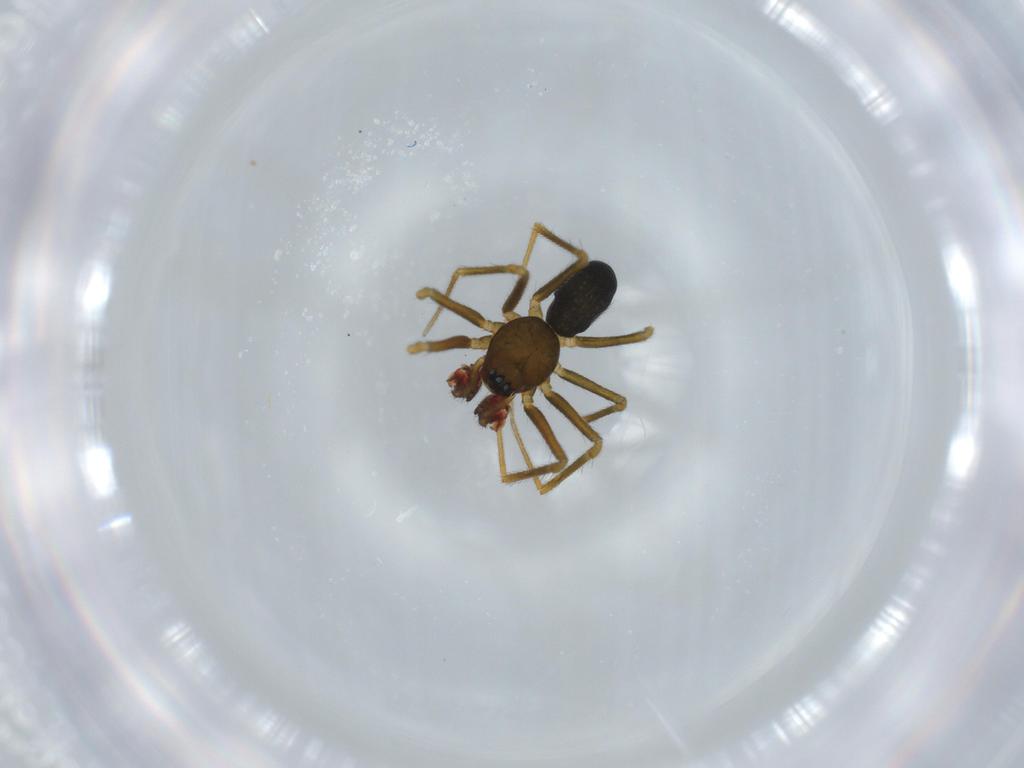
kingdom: Animalia
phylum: Arthropoda
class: Arachnida
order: Araneae
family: Linyphiidae
